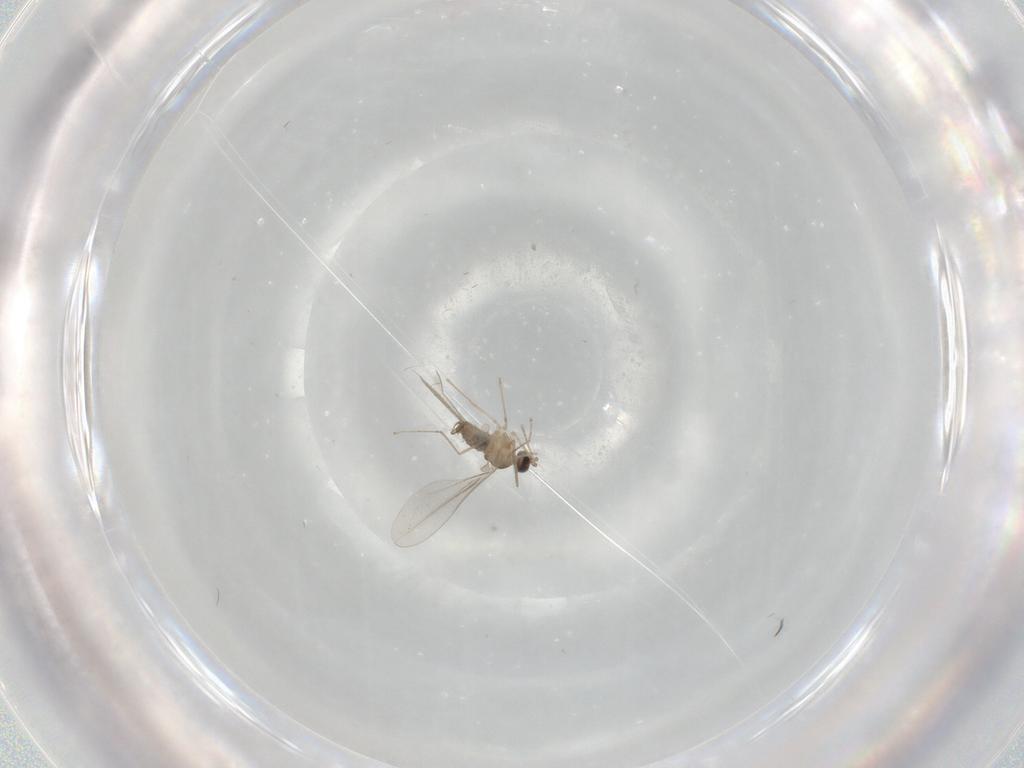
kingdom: Animalia
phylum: Arthropoda
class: Insecta
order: Diptera
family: Cecidomyiidae
